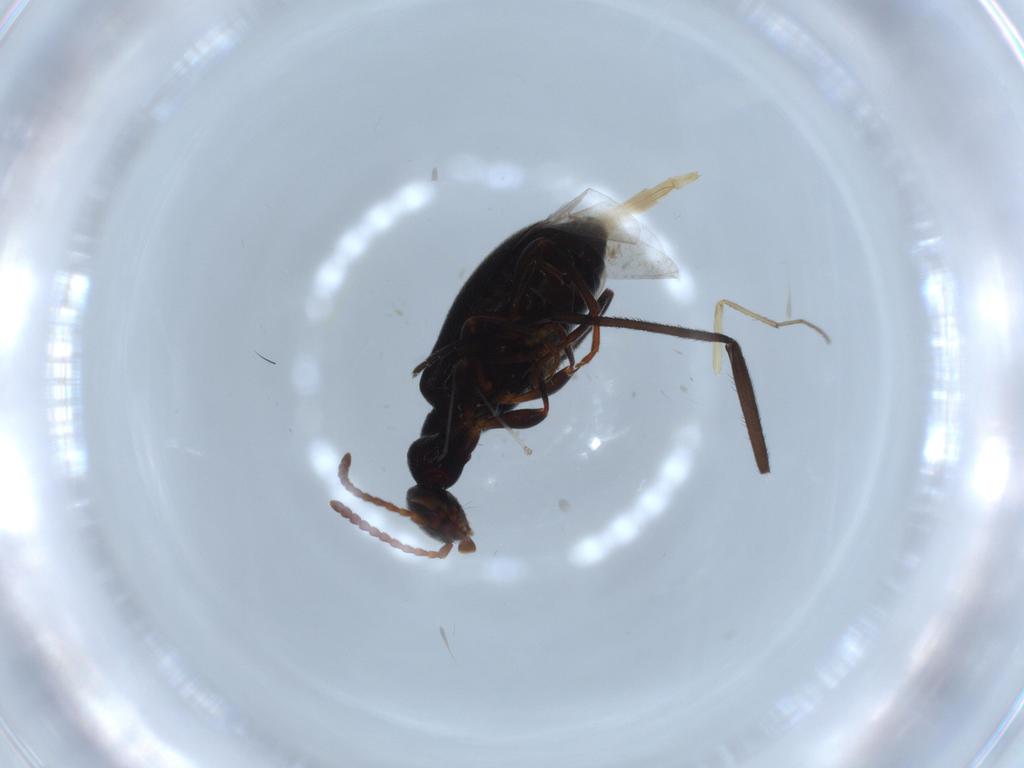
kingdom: Animalia
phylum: Arthropoda
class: Insecta
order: Coleoptera
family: Anthicidae
